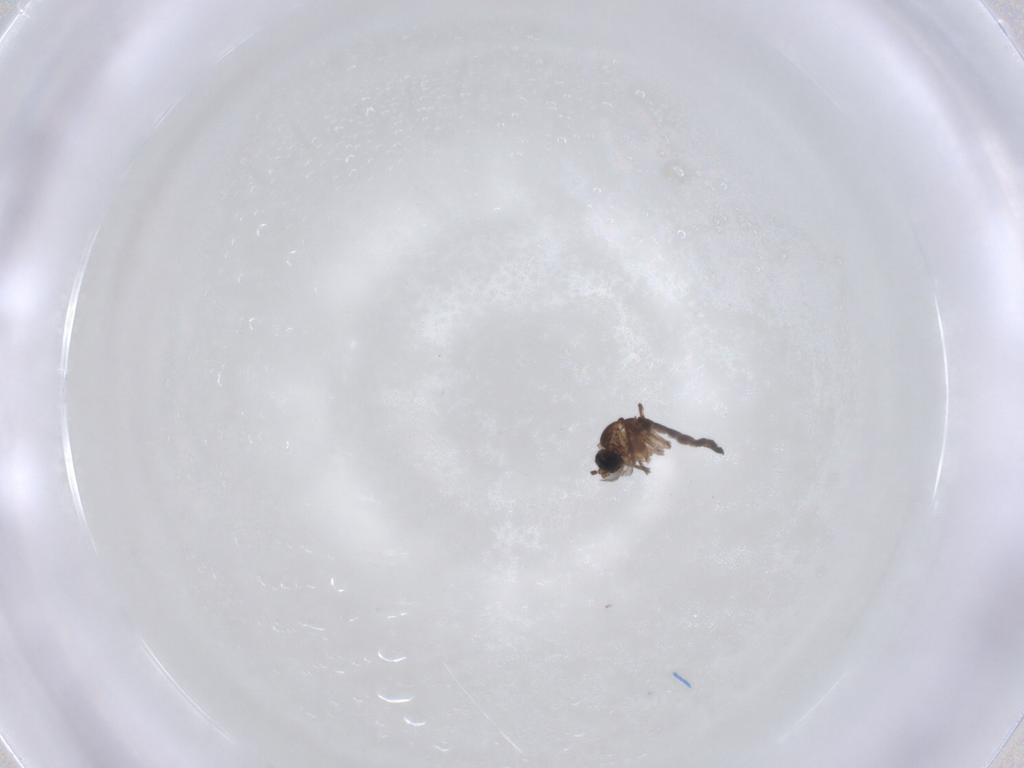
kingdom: Animalia
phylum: Arthropoda
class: Insecta
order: Diptera
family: Sciaridae
